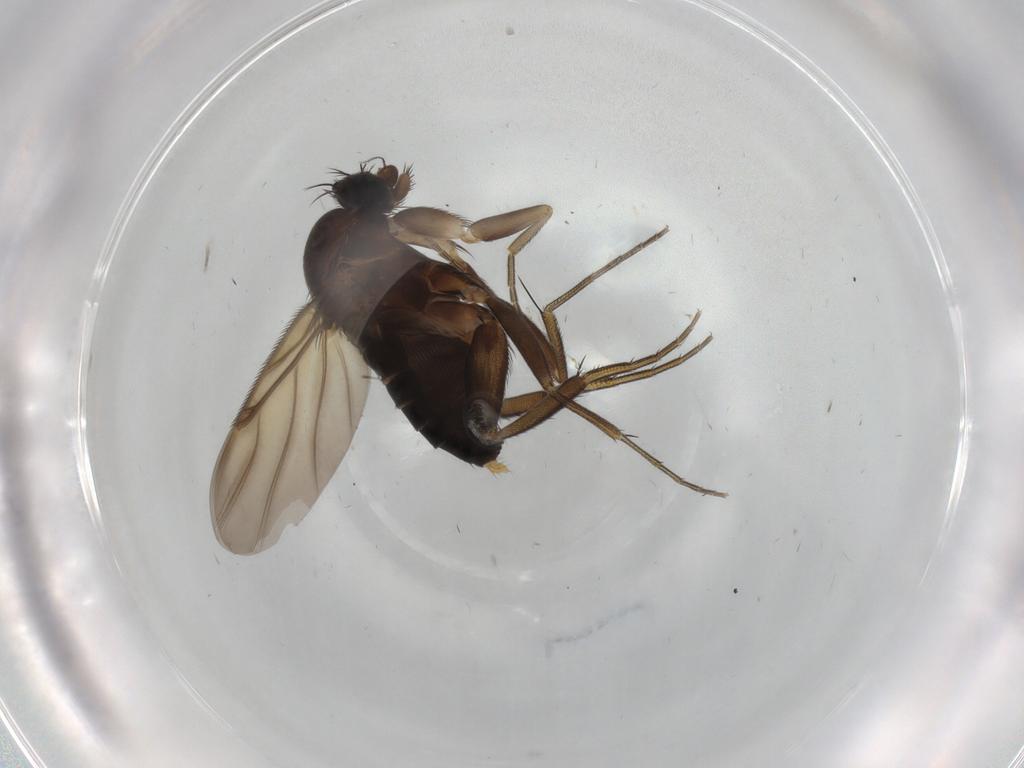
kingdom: Animalia
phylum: Arthropoda
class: Insecta
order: Diptera
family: Phoridae
